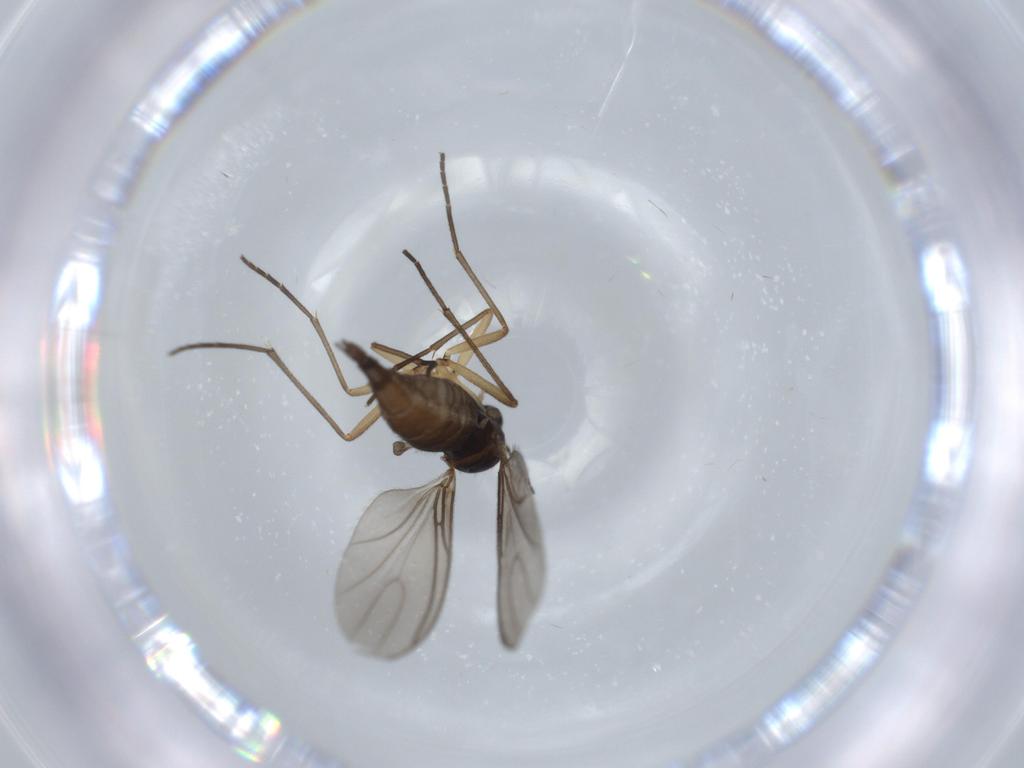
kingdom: Animalia
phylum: Arthropoda
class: Insecta
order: Diptera
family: Sciaridae
